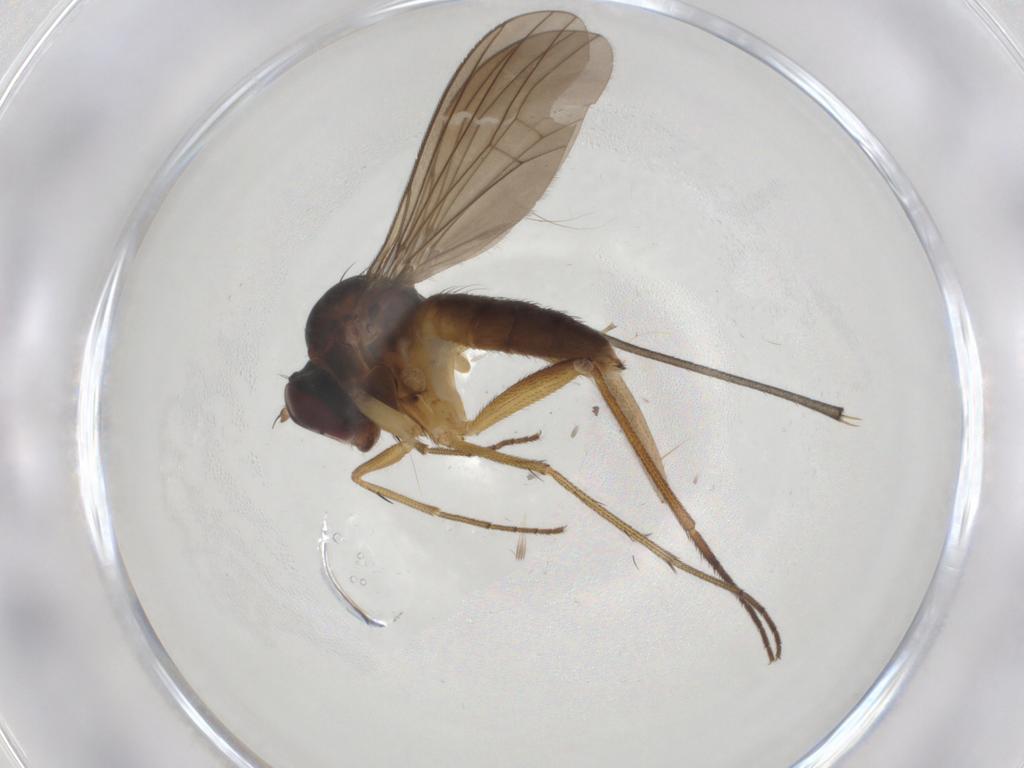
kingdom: Animalia
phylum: Arthropoda
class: Insecta
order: Diptera
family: Dolichopodidae
